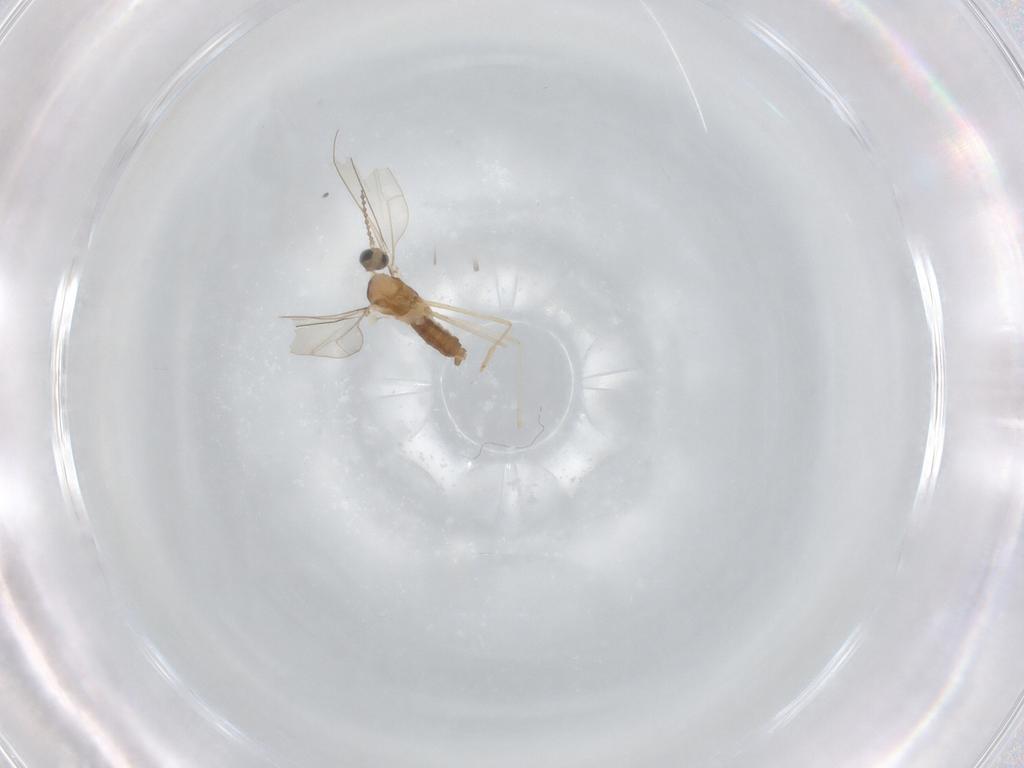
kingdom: Animalia
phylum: Arthropoda
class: Insecta
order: Diptera
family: Cecidomyiidae
